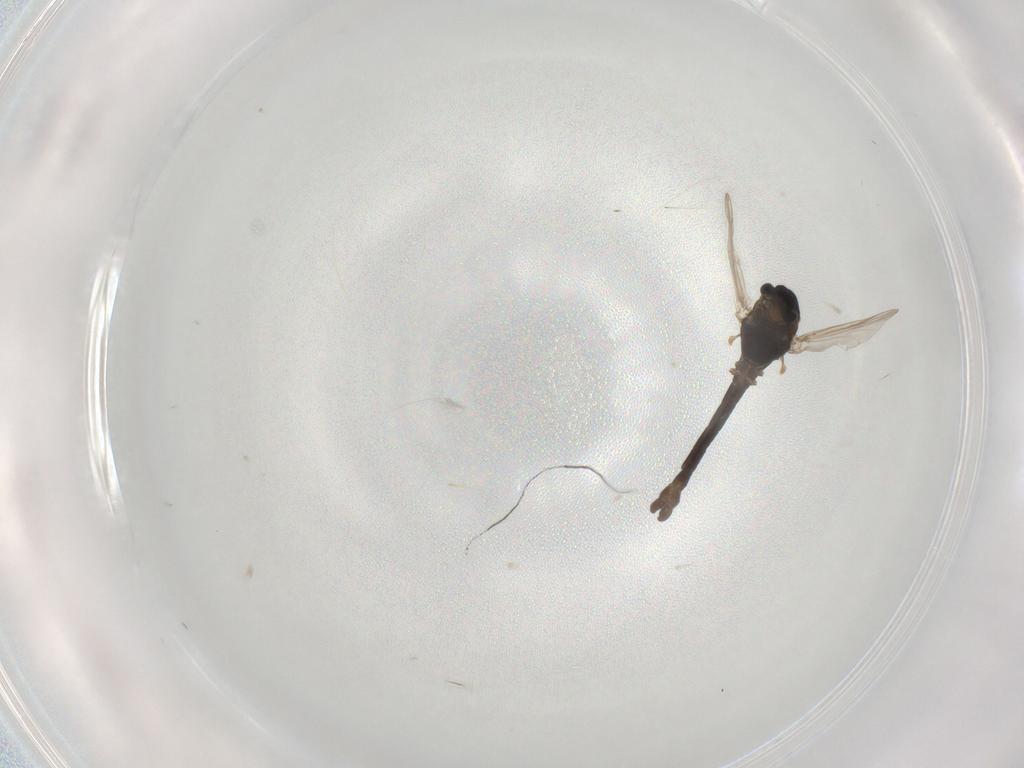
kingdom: Animalia
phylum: Arthropoda
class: Insecta
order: Diptera
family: Chironomidae
